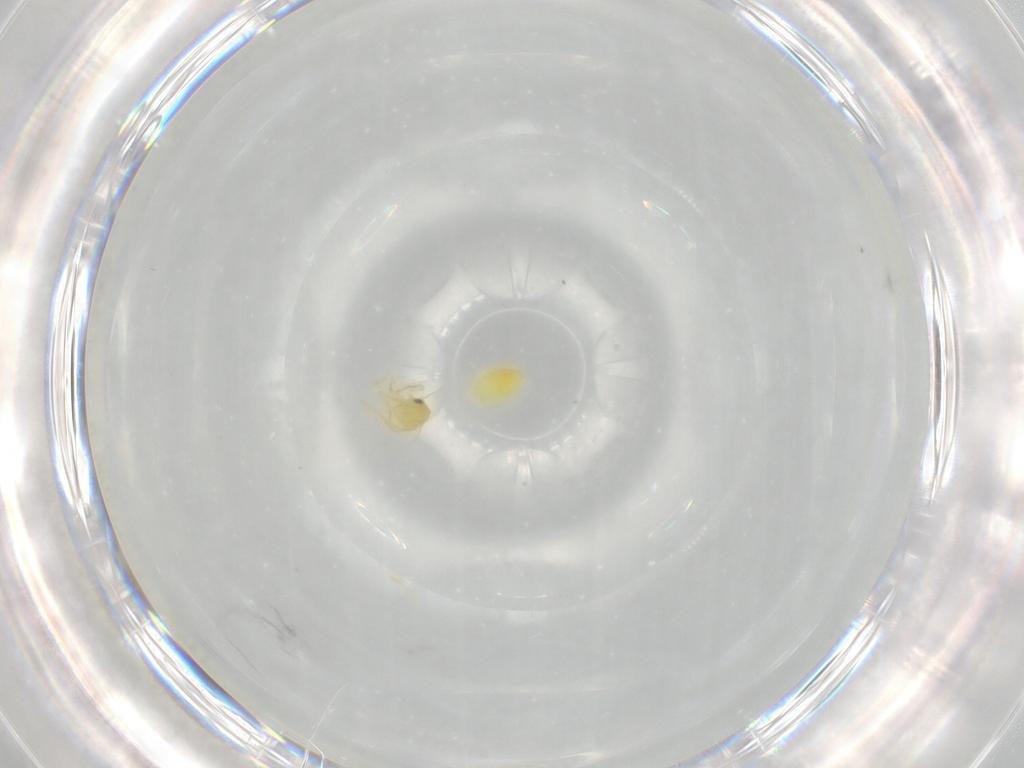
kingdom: Animalia
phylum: Arthropoda
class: Insecta
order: Hemiptera
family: Aleyrodidae
